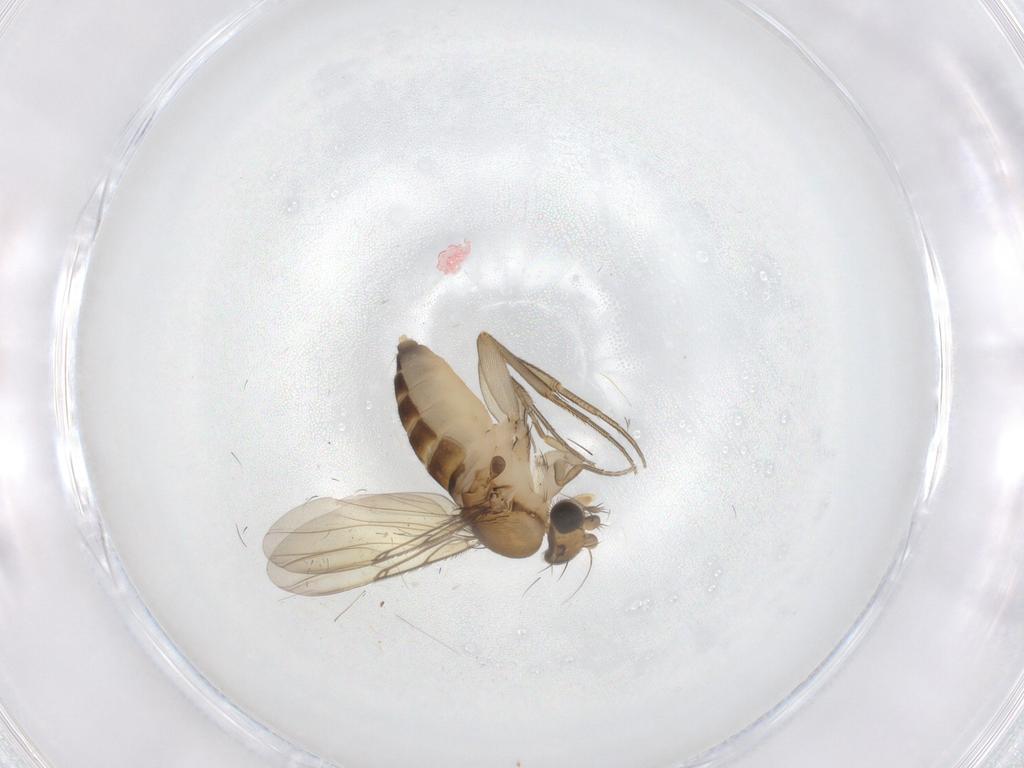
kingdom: Animalia
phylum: Arthropoda
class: Insecta
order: Diptera
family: Phoridae
